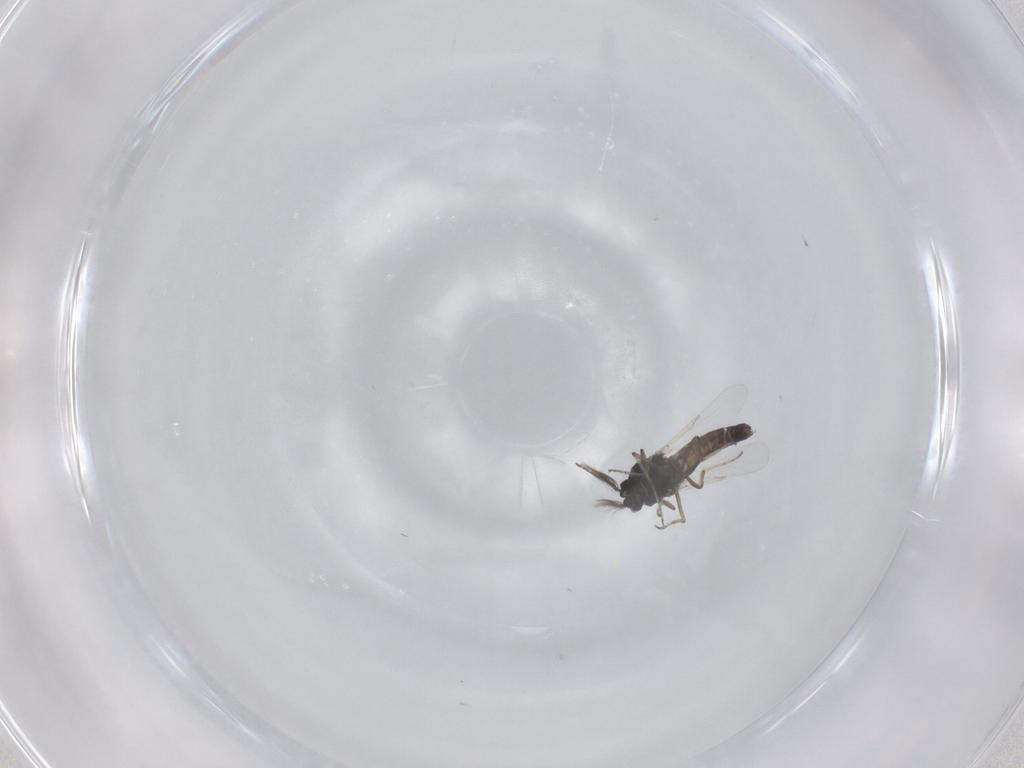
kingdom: Animalia
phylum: Arthropoda
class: Insecta
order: Diptera
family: Ceratopogonidae
